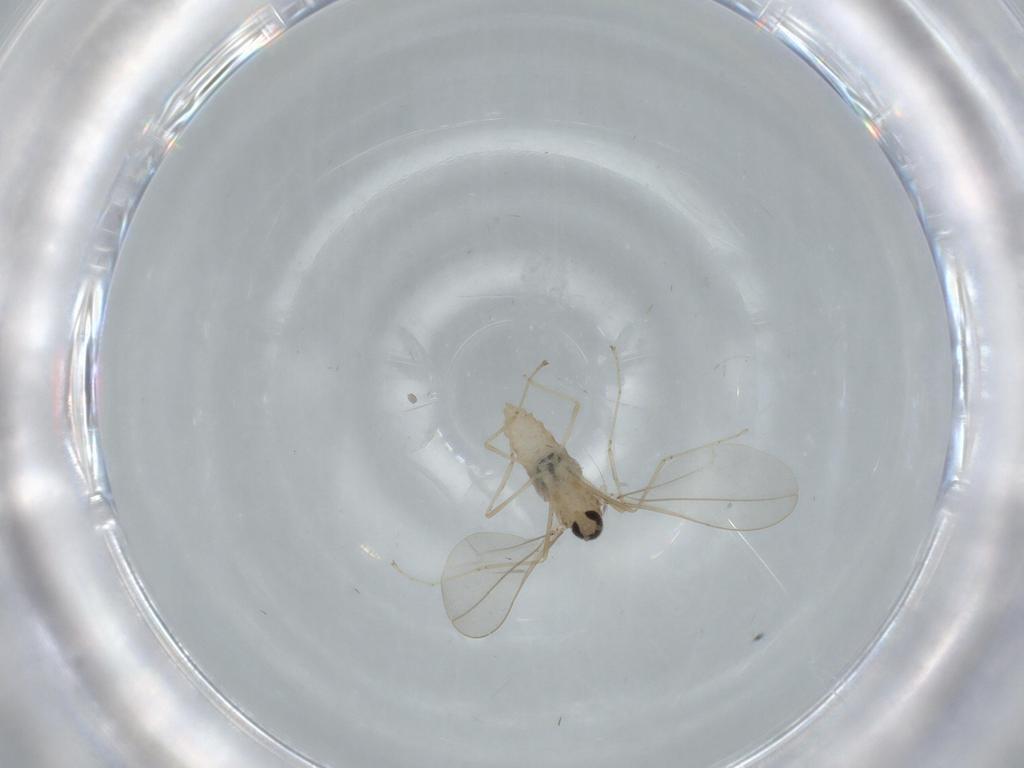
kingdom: Animalia
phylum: Arthropoda
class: Insecta
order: Diptera
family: Cecidomyiidae
